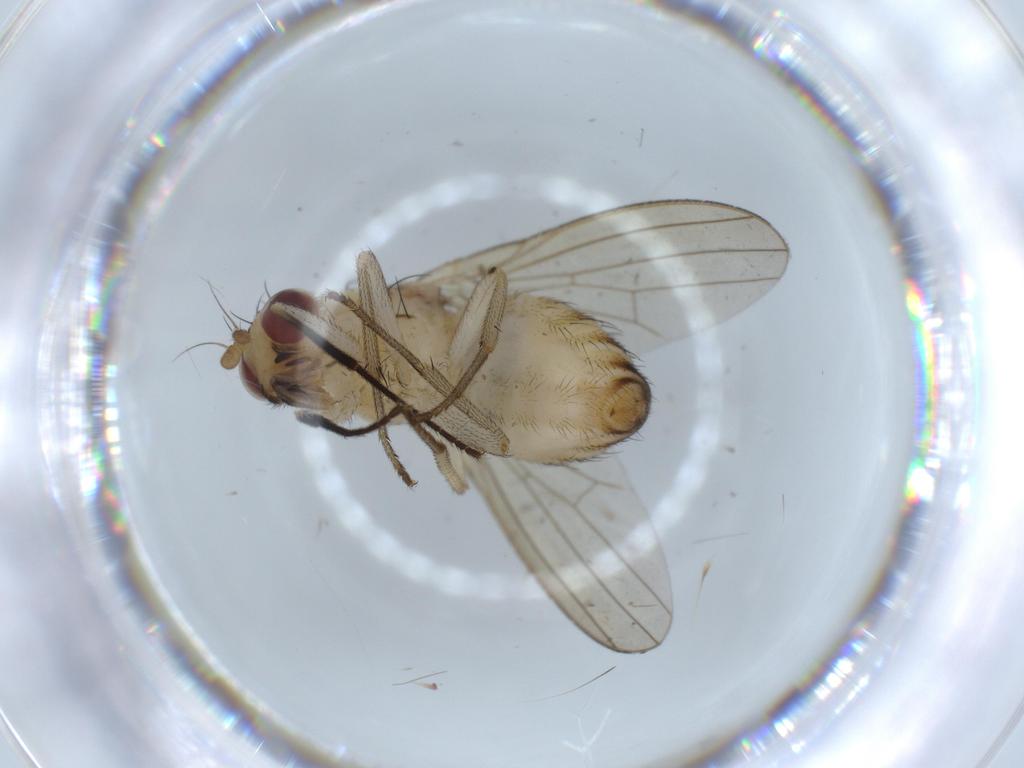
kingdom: Animalia
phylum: Arthropoda
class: Insecta
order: Diptera
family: Lauxaniidae
